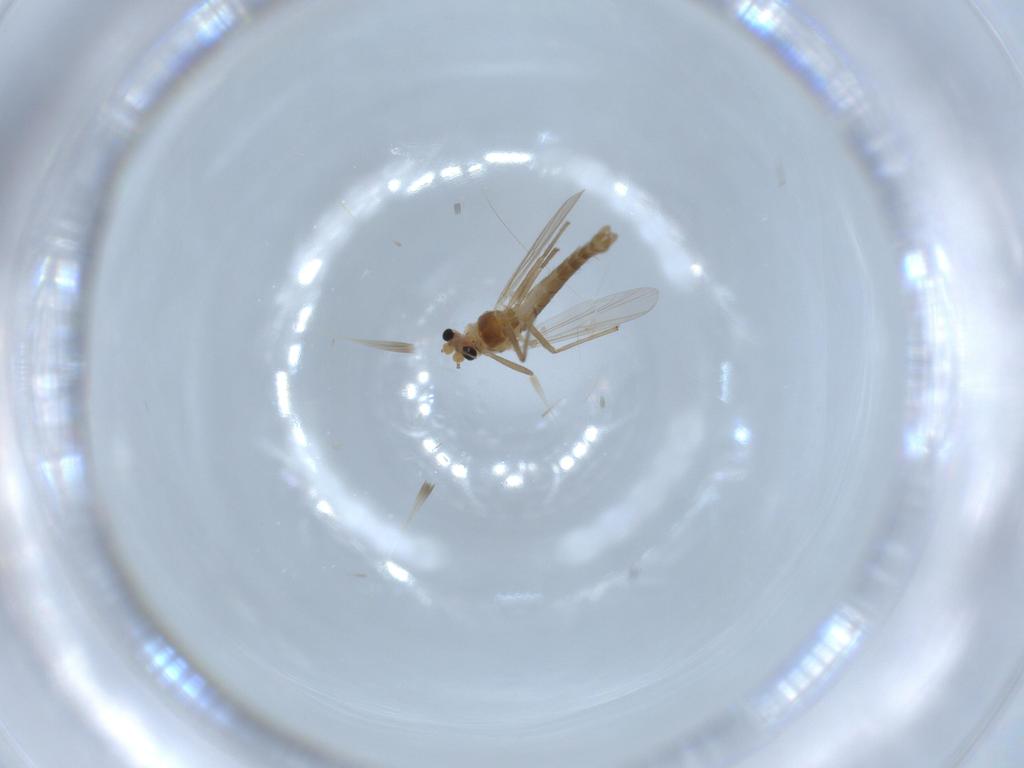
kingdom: Animalia
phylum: Arthropoda
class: Insecta
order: Diptera
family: Chironomidae
